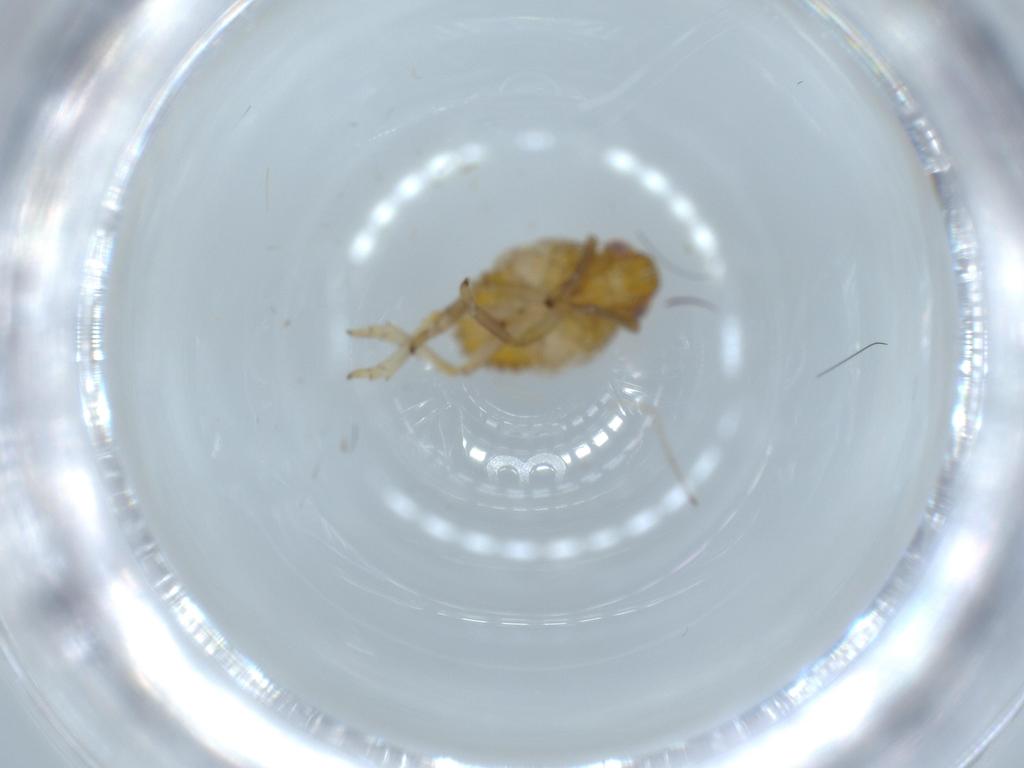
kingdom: Animalia
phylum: Arthropoda
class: Insecta
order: Hemiptera
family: Issidae
